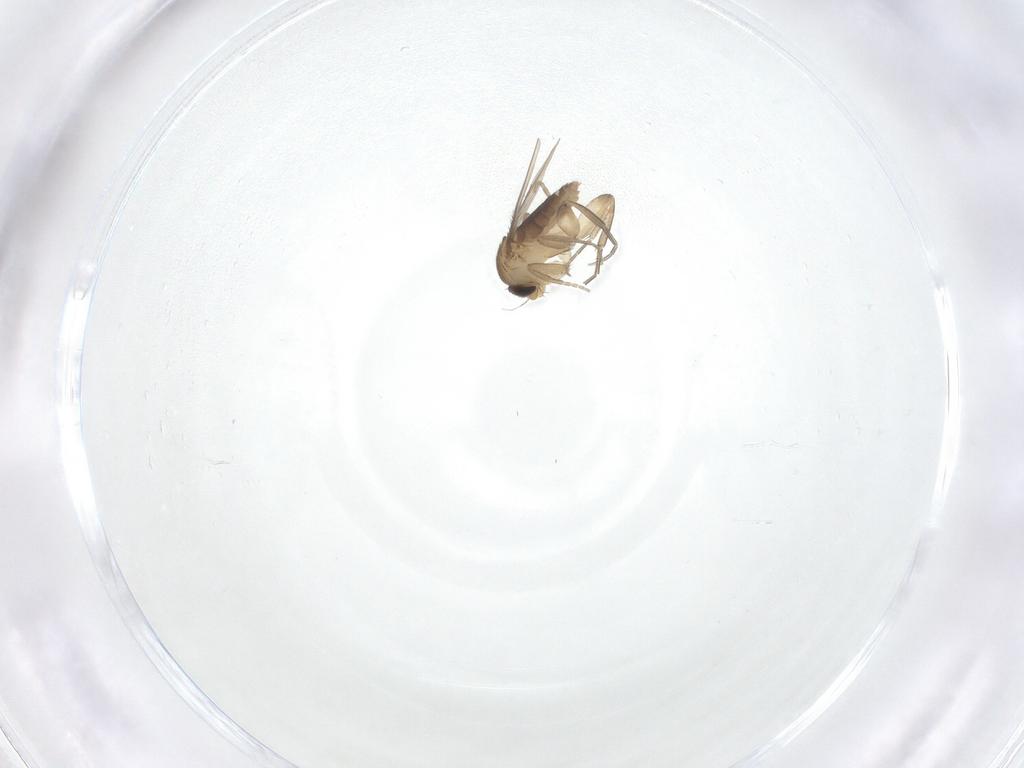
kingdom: Animalia
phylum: Arthropoda
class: Insecta
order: Diptera
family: Phoridae
